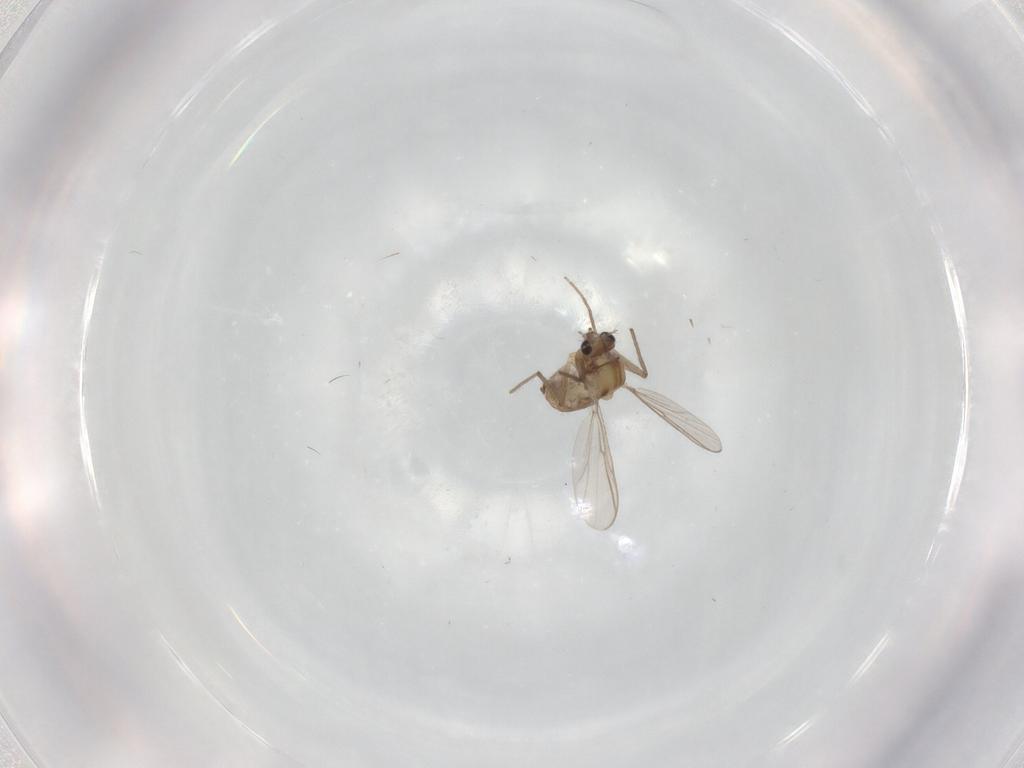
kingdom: Animalia
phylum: Arthropoda
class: Insecta
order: Diptera
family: Chironomidae
